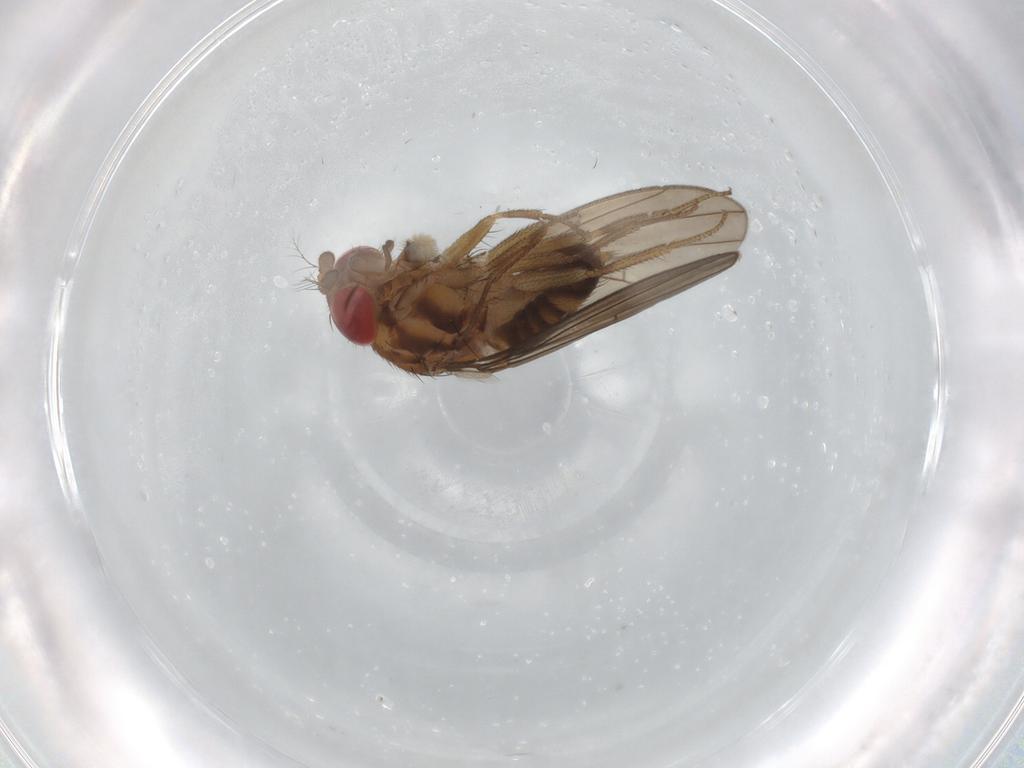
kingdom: Animalia
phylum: Arthropoda
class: Insecta
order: Diptera
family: Drosophilidae
